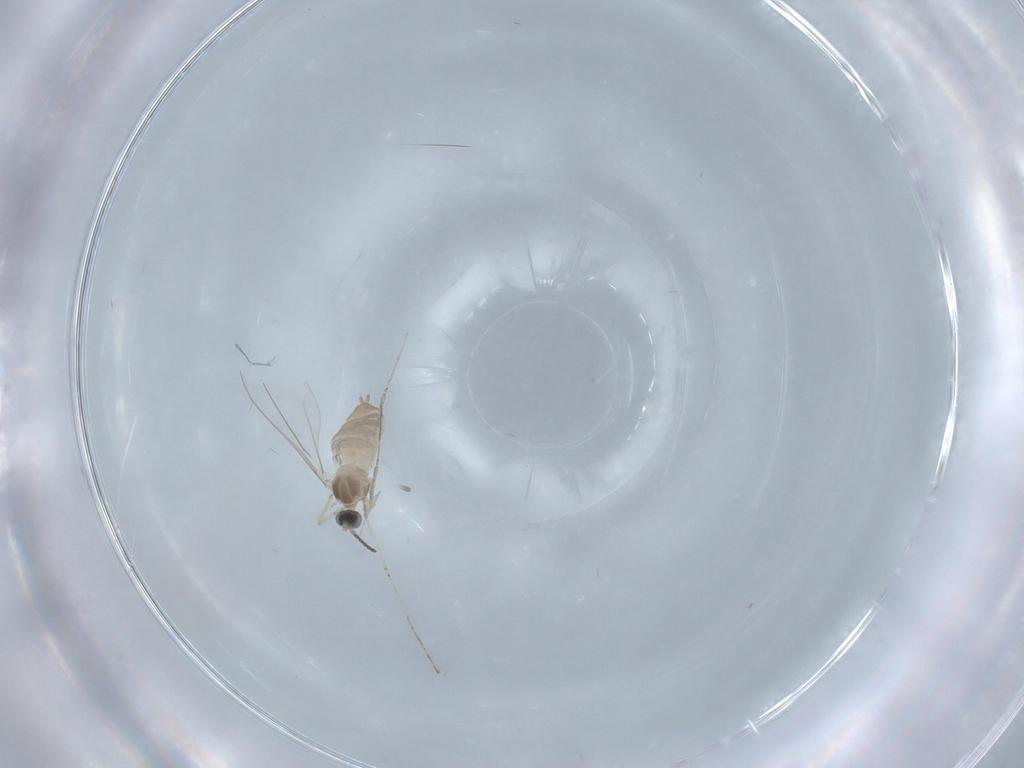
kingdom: Animalia
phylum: Arthropoda
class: Insecta
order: Diptera
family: Cecidomyiidae
